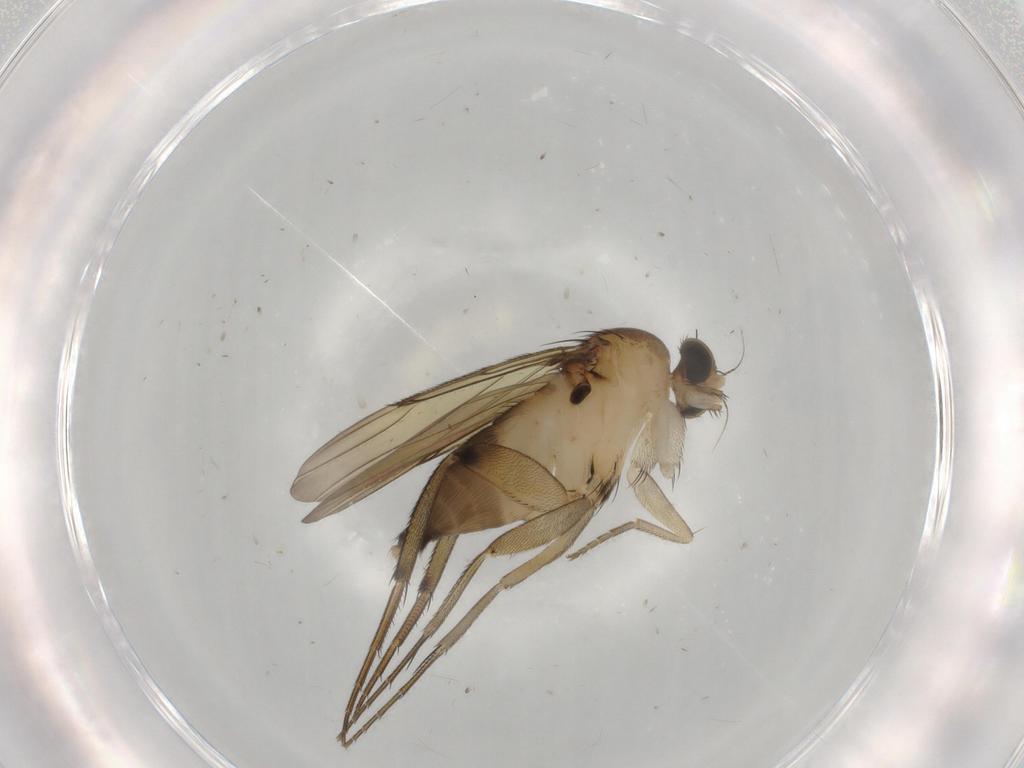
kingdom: Animalia
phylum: Arthropoda
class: Insecta
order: Diptera
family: Phoridae
